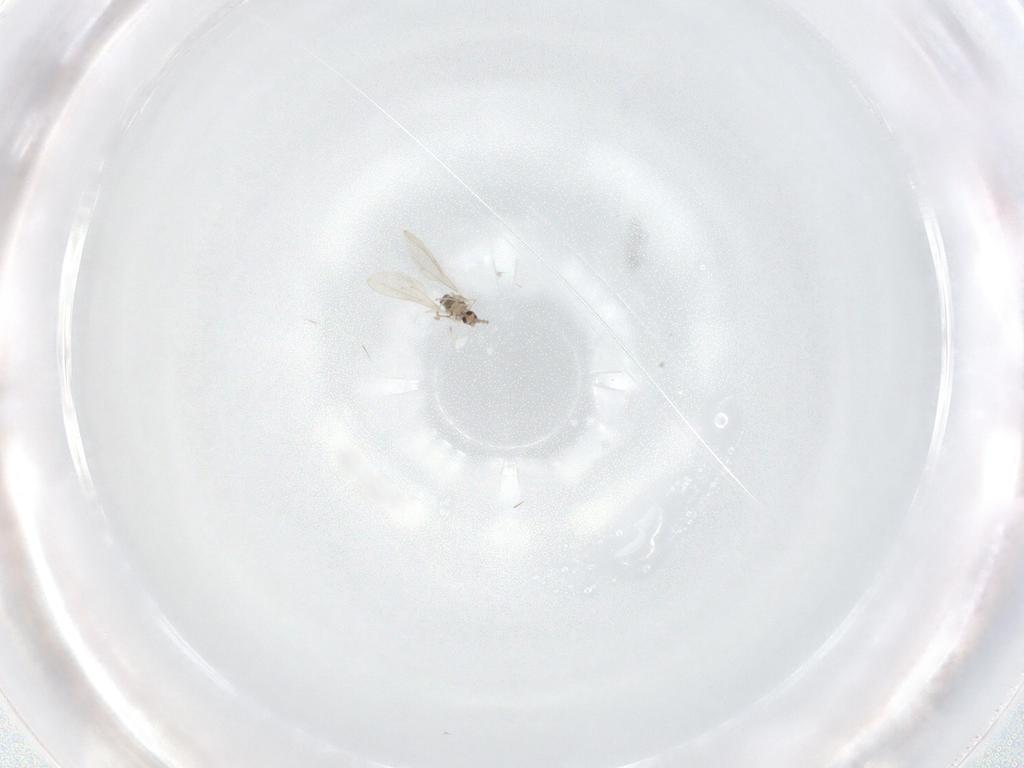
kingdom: Animalia
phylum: Arthropoda
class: Insecta
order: Diptera
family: Cecidomyiidae
